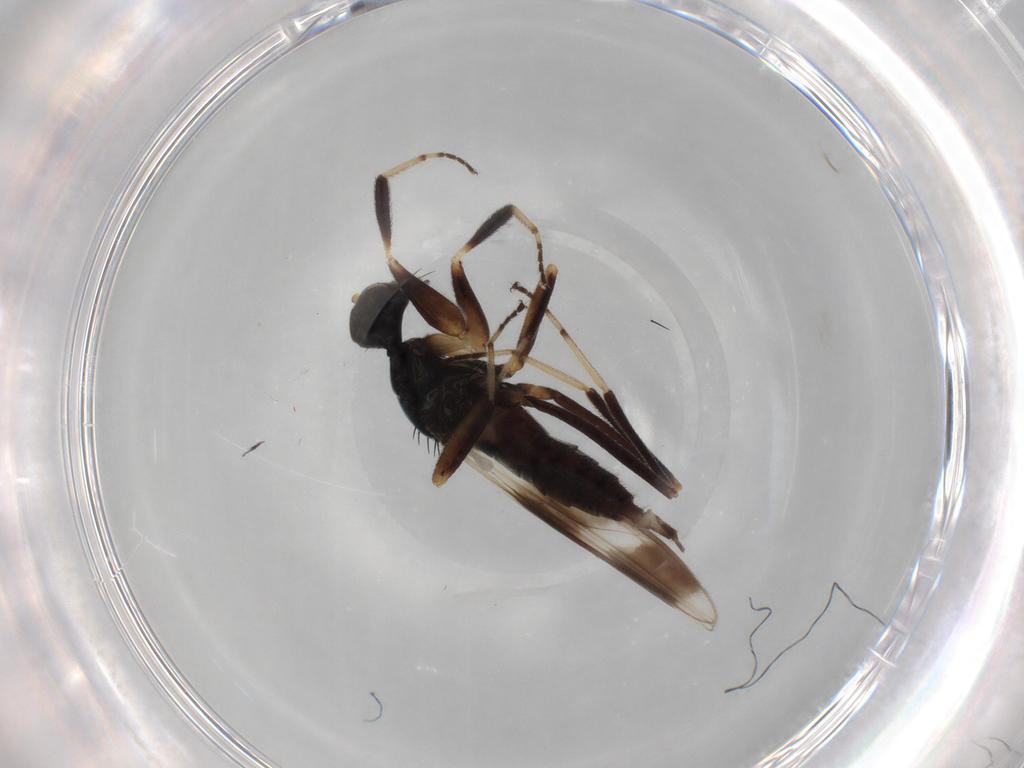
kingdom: Animalia
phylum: Arthropoda
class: Insecta
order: Diptera
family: Hybotidae
